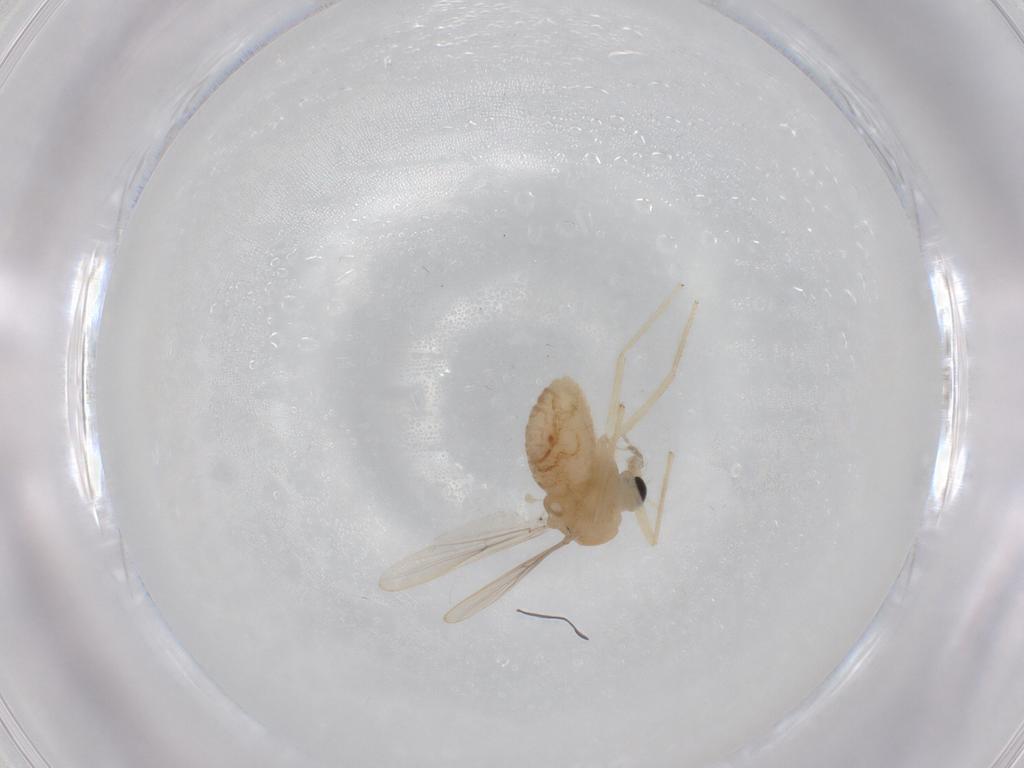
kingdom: Animalia
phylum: Arthropoda
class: Insecta
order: Diptera
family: Chironomidae
